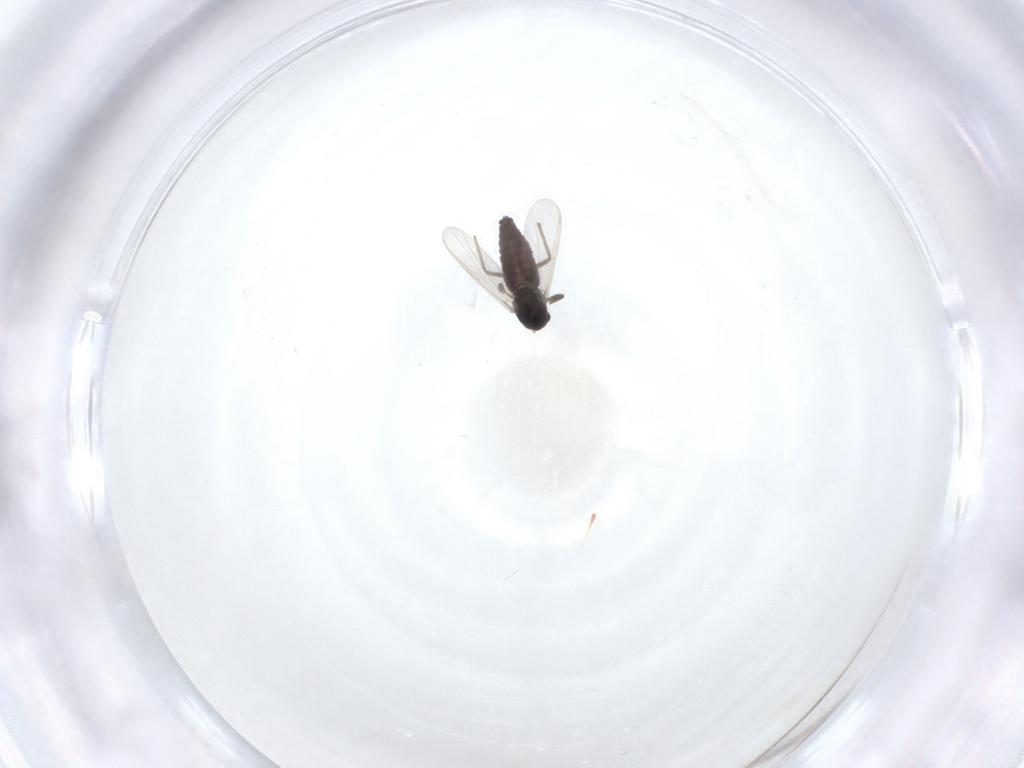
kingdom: Animalia
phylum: Arthropoda
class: Insecta
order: Diptera
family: Chironomidae
